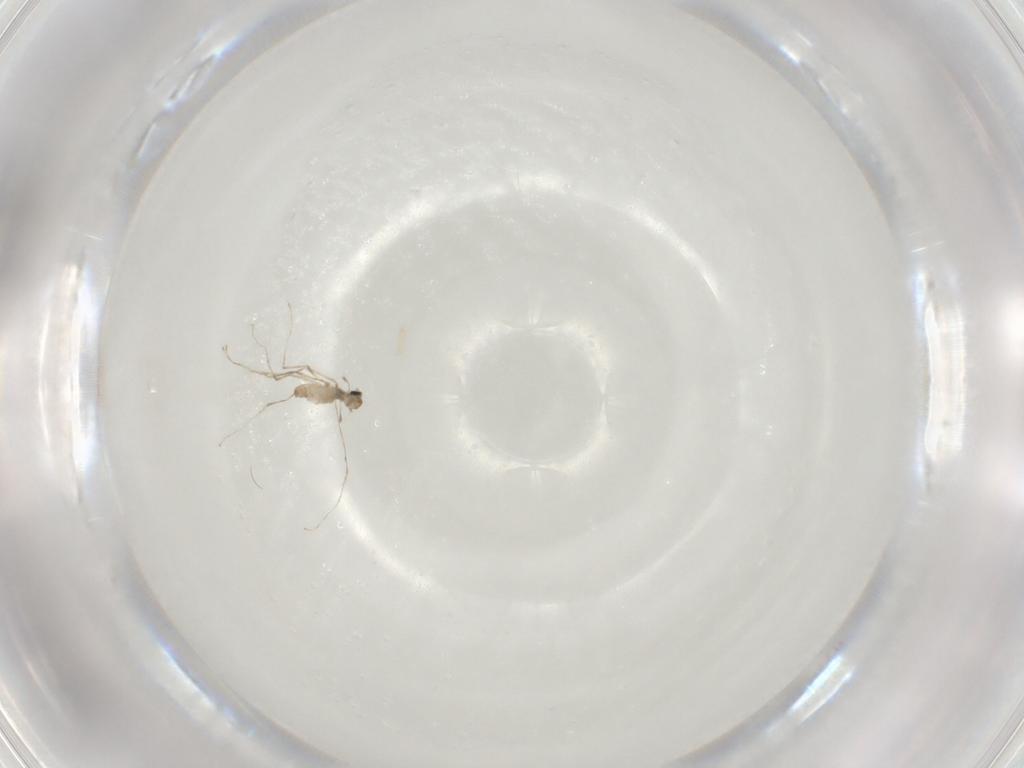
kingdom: Animalia
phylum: Arthropoda
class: Insecta
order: Diptera
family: Cecidomyiidae
